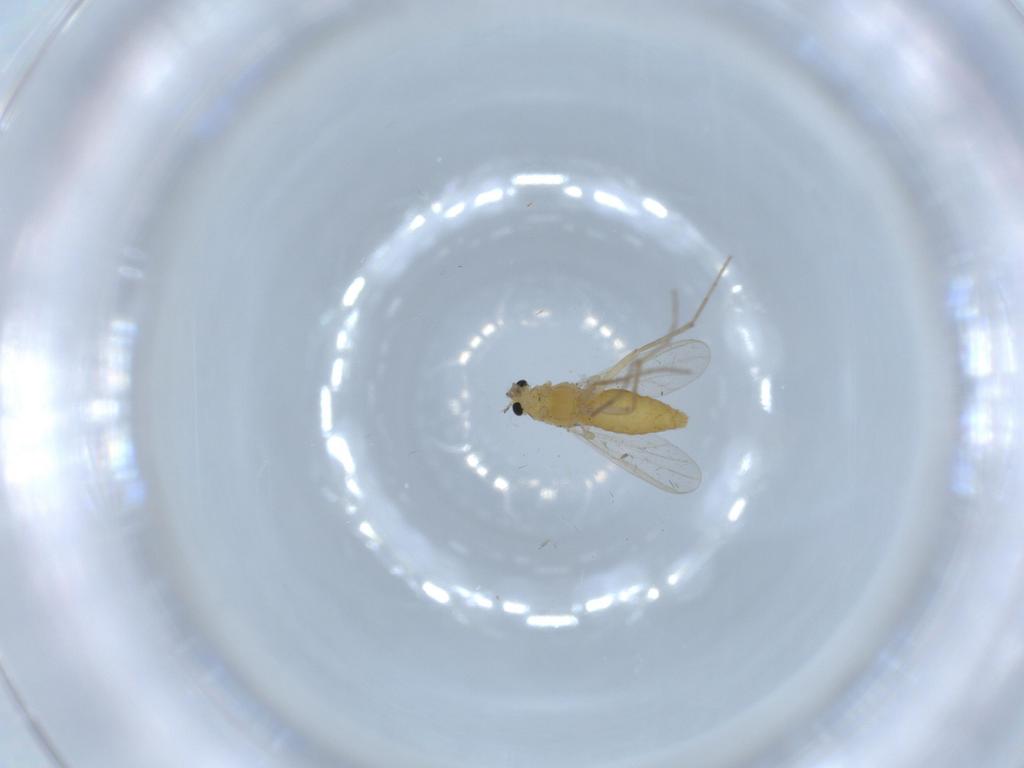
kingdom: Animalia
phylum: Arthropoda
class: Insecta
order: Diptera
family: Chironomidae
